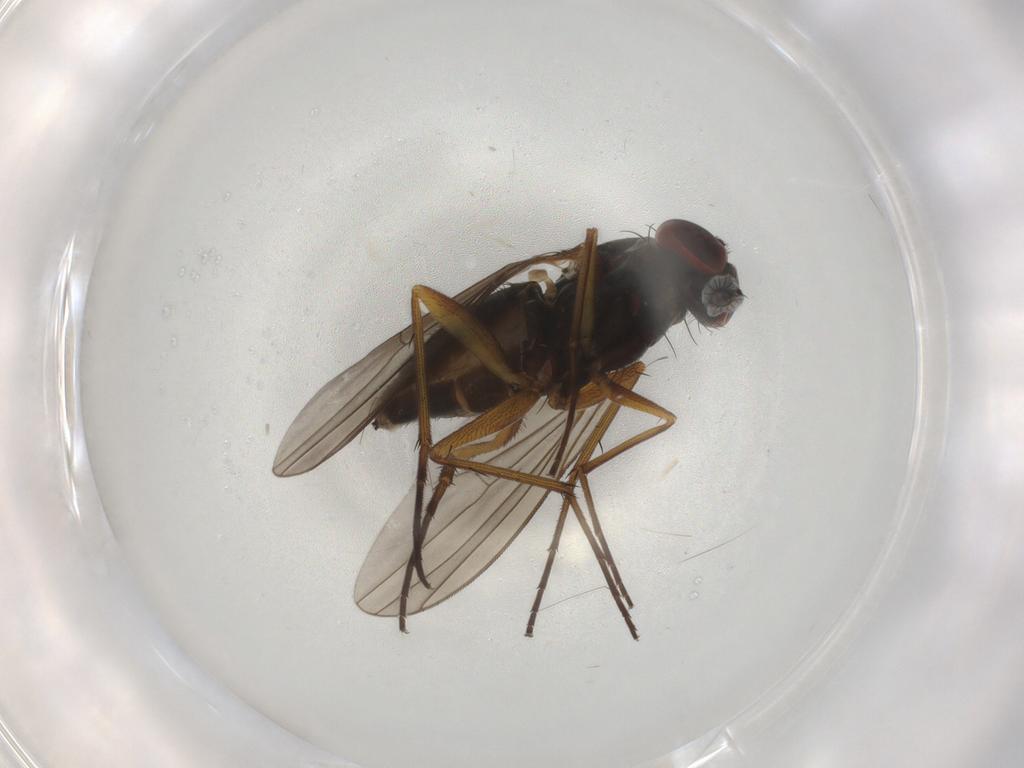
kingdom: Animalia
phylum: Arthropoda
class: Insecta
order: Diptera
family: Dolichopodidae
